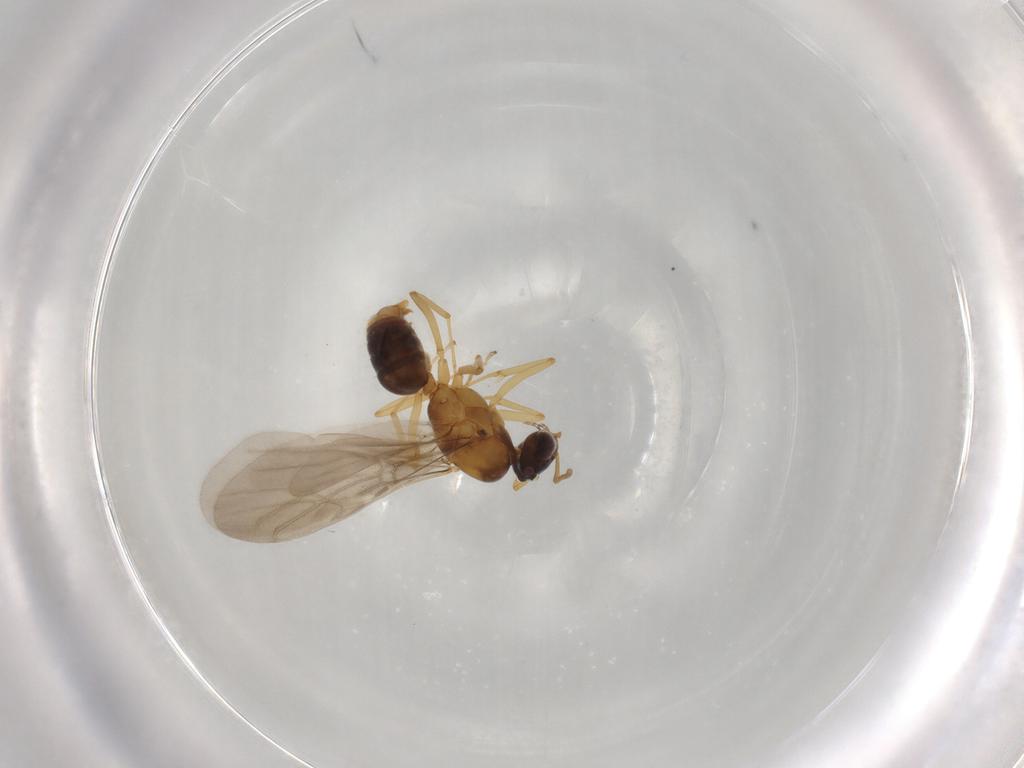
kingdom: Animalia
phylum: Arthropoda
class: Insecta
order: Hymenoptera
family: Formicidae
